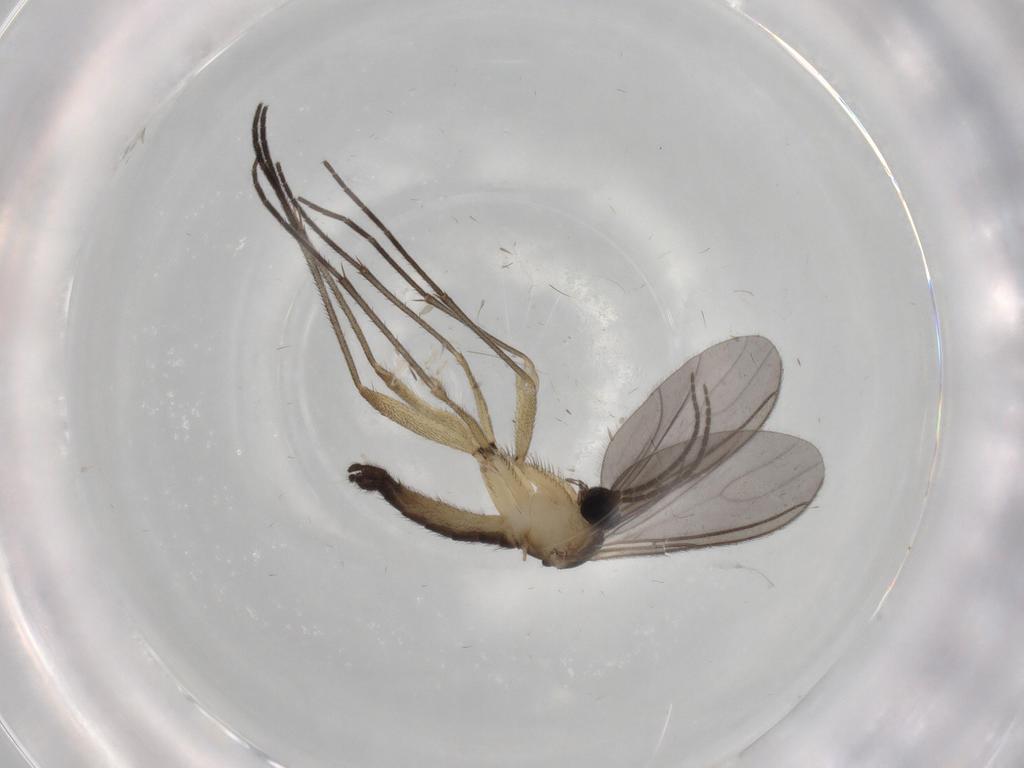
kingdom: Animalia
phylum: Arthropoda
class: Insecta
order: Diptera
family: Sciaridae
